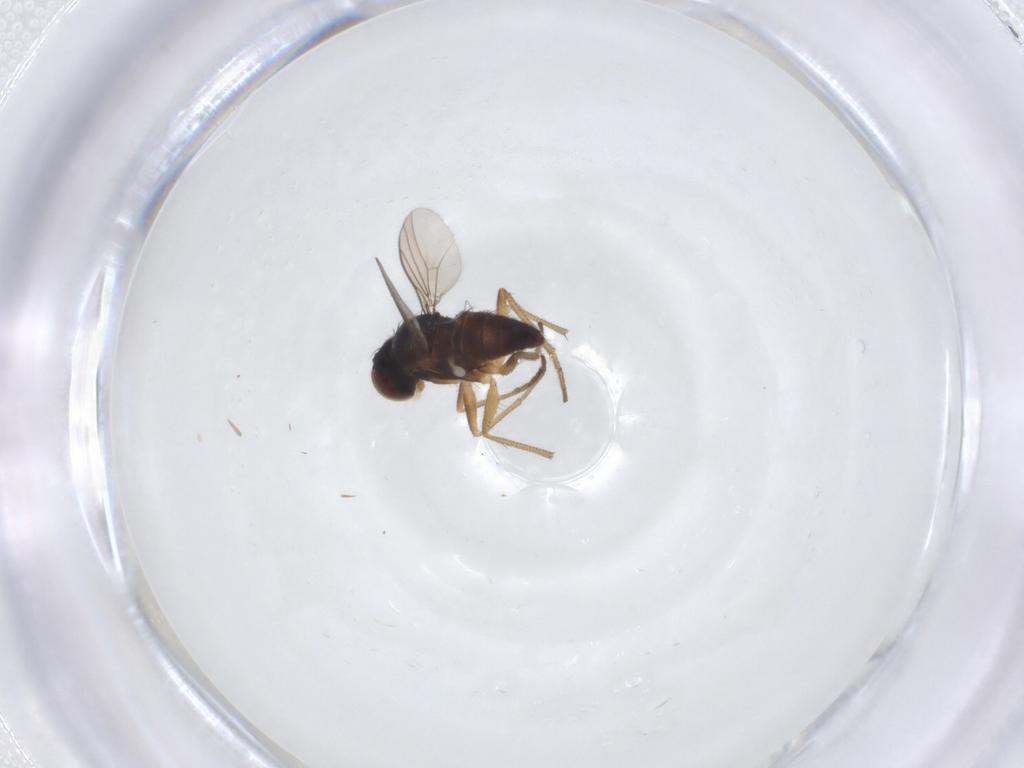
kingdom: Animalia
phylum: Arthropoda
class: Insecta
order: Diptera
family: Dolichopodidae
